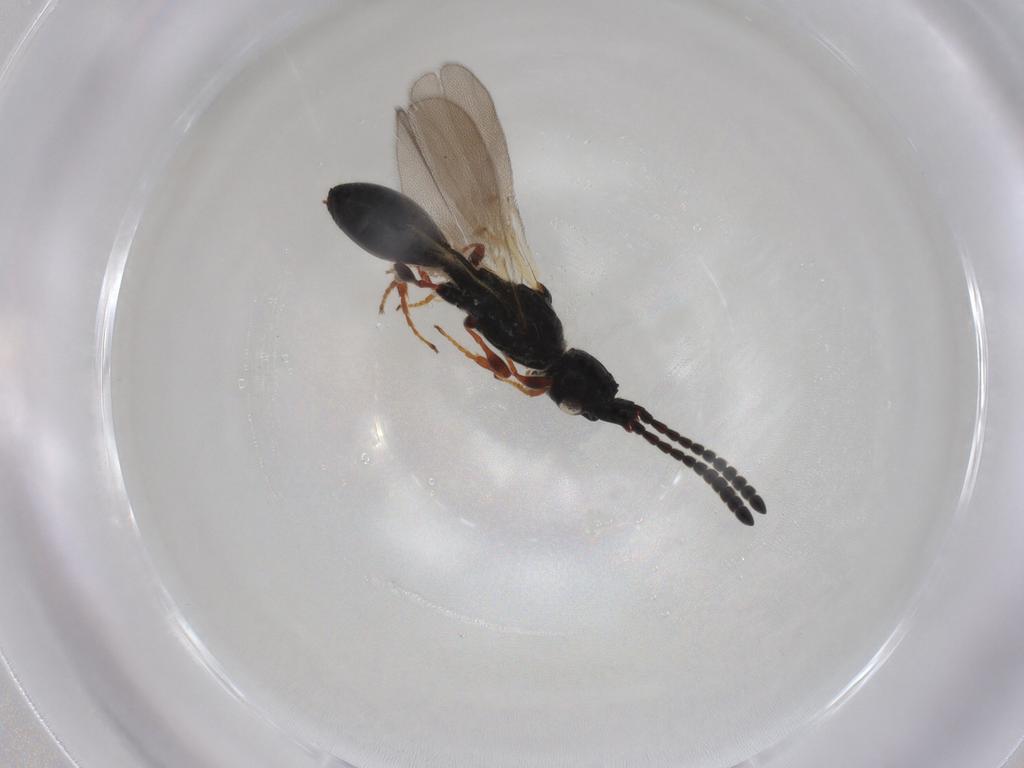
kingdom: Animalia
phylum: Arthropoda
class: Insecta
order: Hymenoptera
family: Diapriidae
